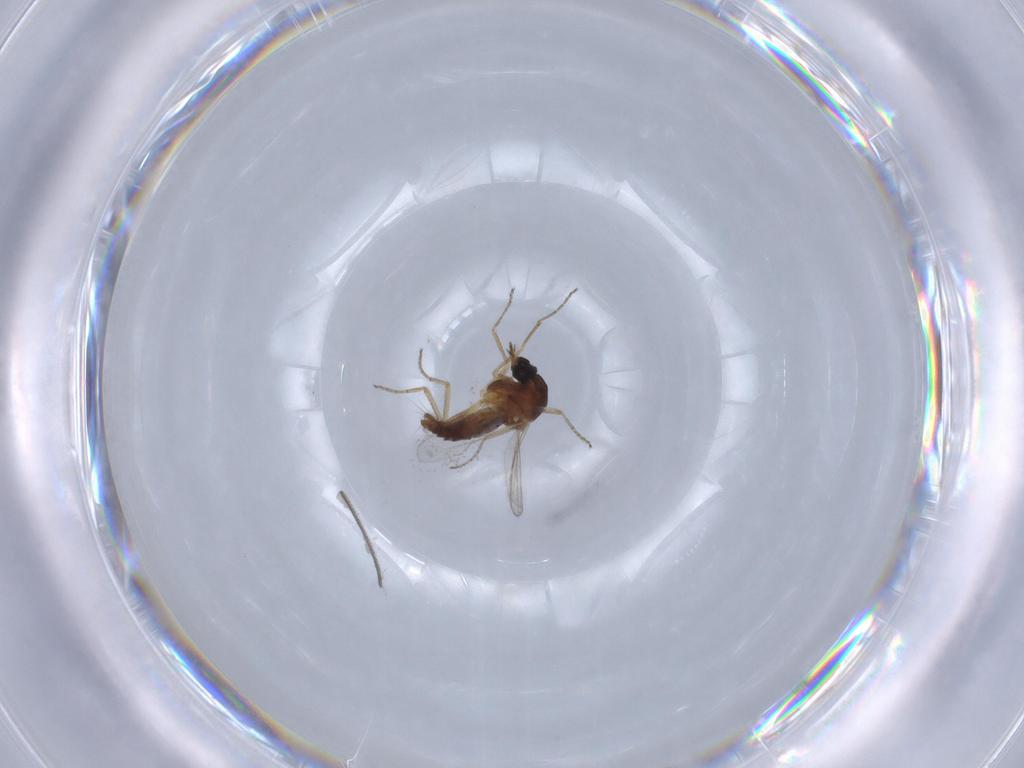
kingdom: Animalia
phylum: Arthropoda
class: Insecta
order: Diptera
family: Ceratopogonidae
